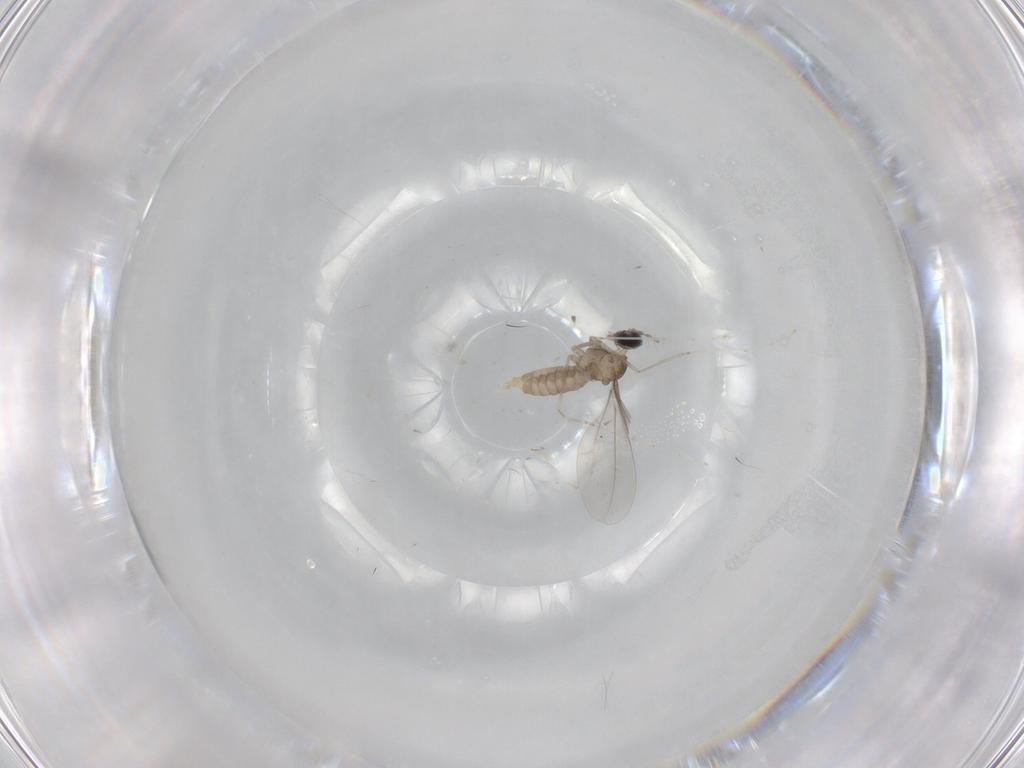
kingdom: Animalia
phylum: Arthropoda
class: Insecta
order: Diptera
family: Cecidomyiidae
